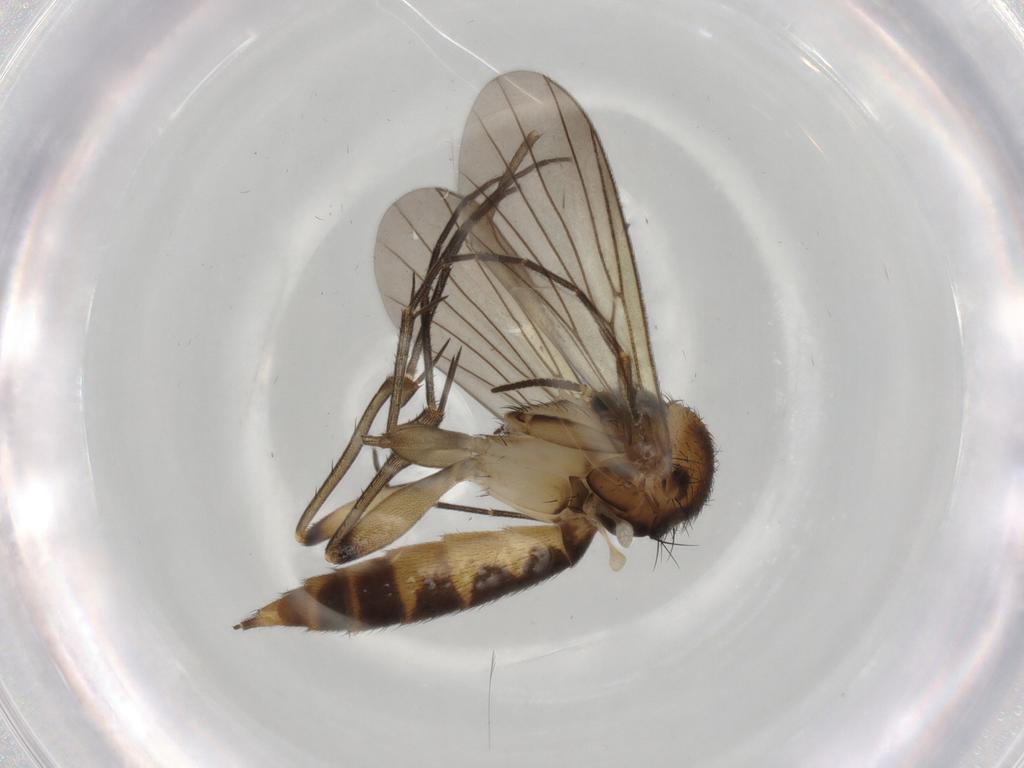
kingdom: Animalia
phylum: Arthropoda
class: Insecta
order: Diptera
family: Mycetophilidae
